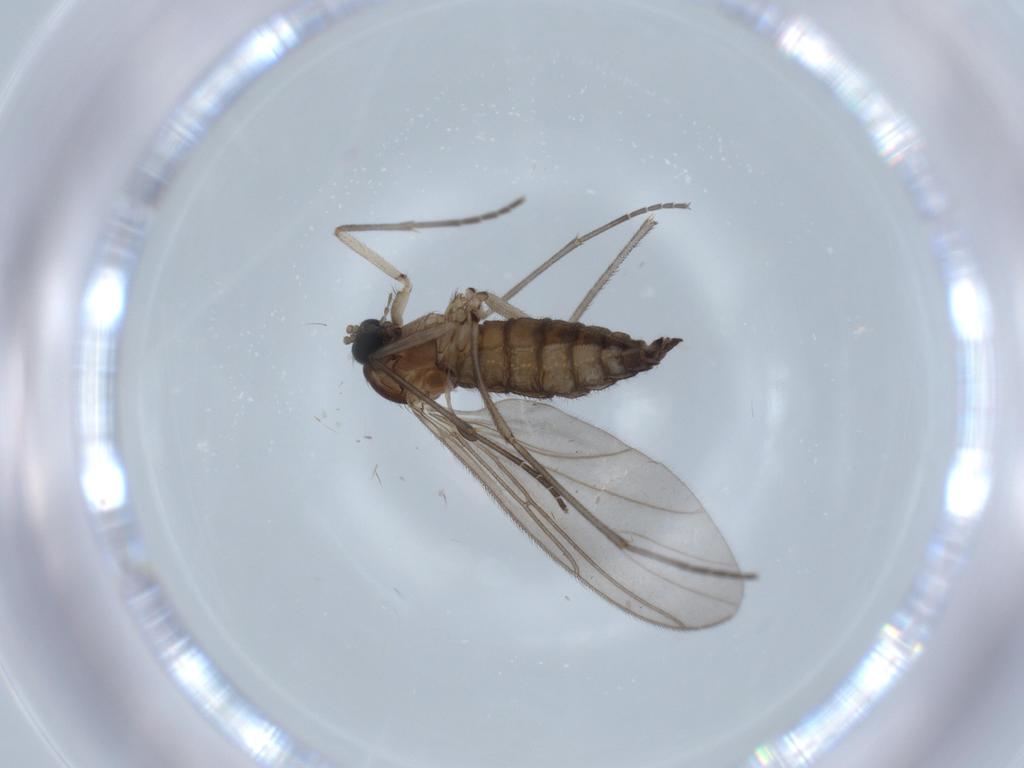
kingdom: Animalia
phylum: Arthropoda
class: Insecta
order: Diptera
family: Sciaridae
